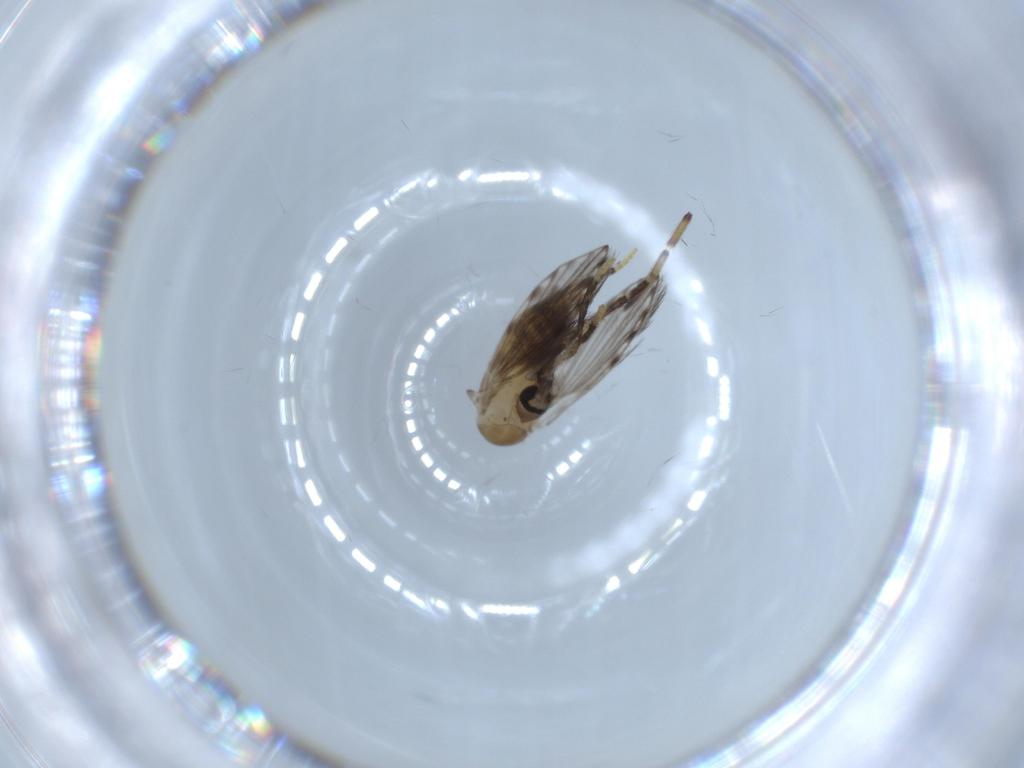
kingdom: Animalia
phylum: Arthropoda
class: Insecta
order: Diptera
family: Psychodidae
